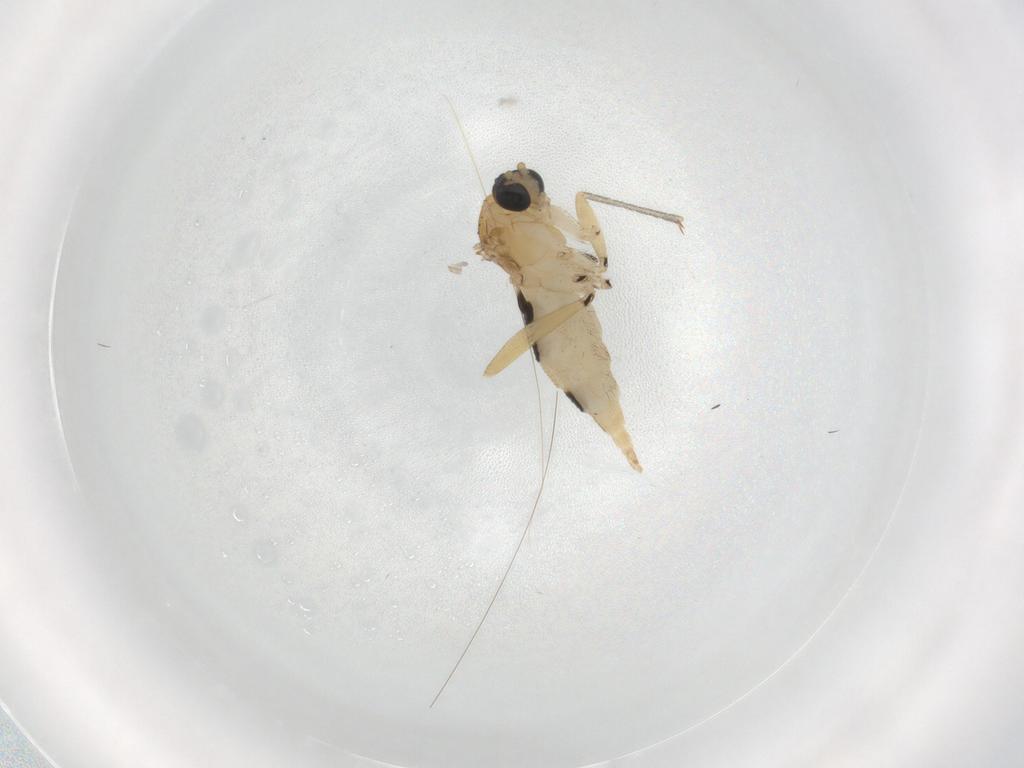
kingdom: Animalia
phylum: Arthropoda
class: Insecta
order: Diptera
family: Sciaridae
